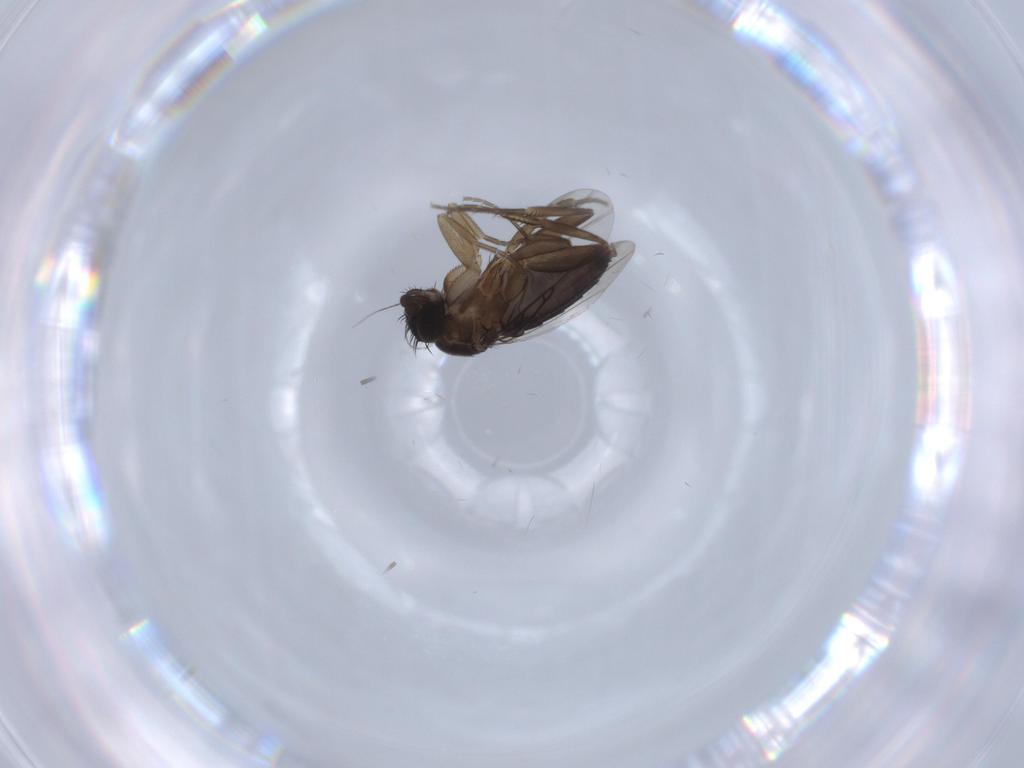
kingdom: Animalia
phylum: Arthropoda
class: Insecta
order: Diptera
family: Phoridae
